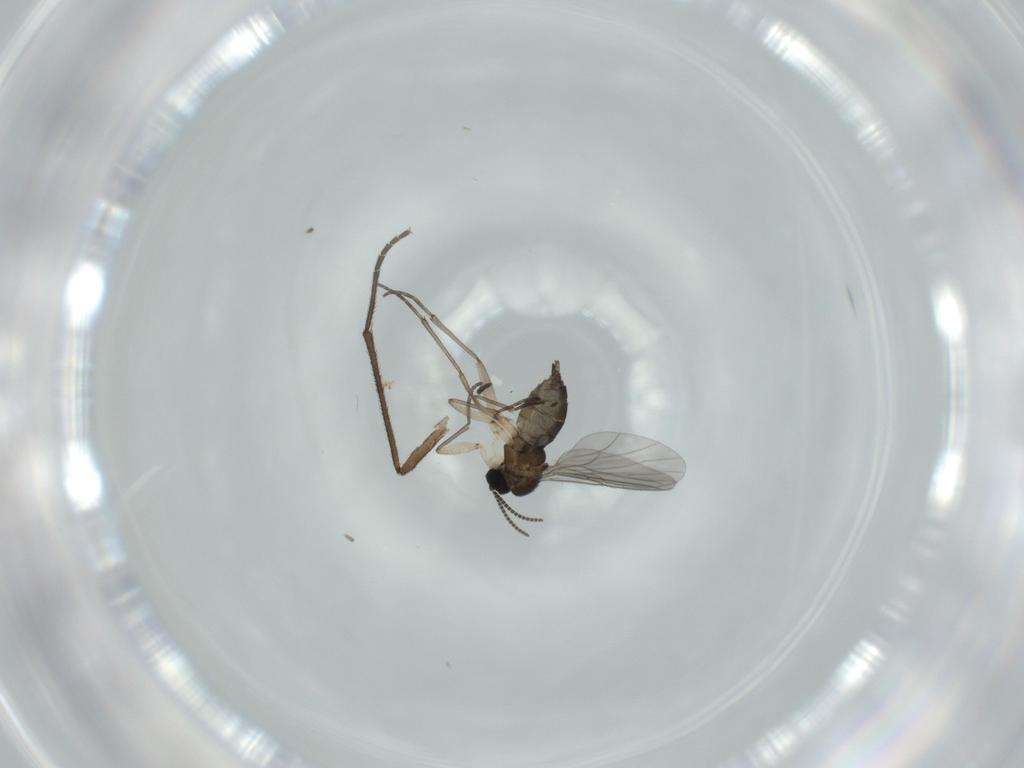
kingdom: Animalia
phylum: Arthropoda
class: Insecta
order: Diptera
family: Sciaridae
